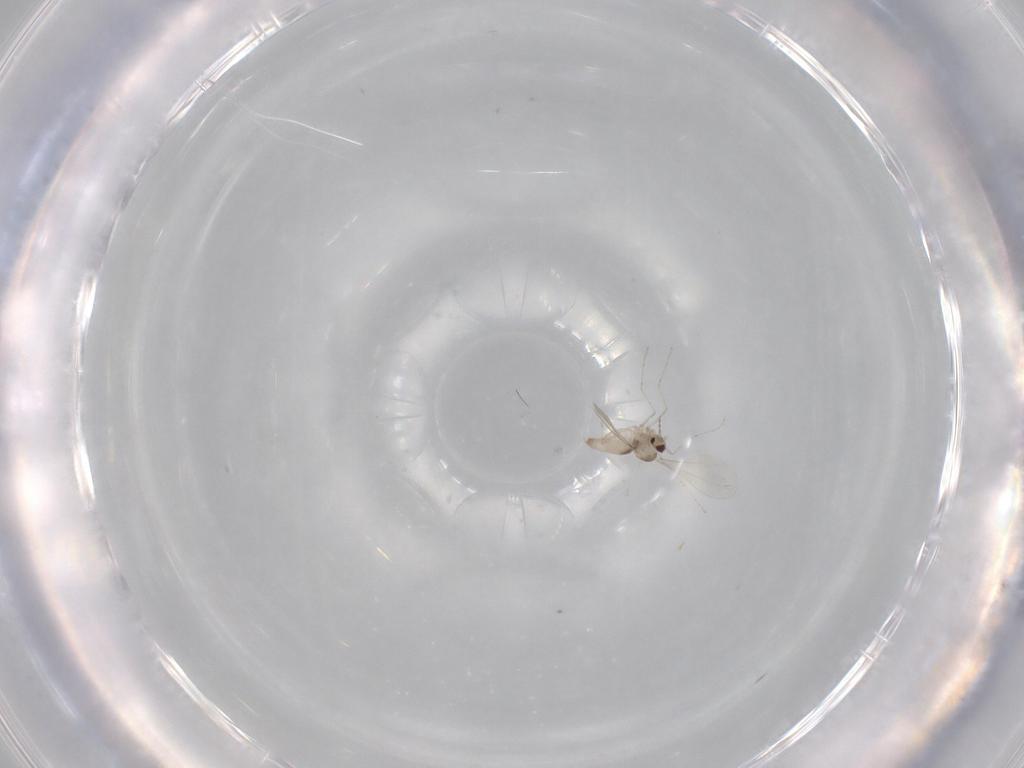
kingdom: Animalia
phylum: Arthropoda
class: Insecta
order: Diptera
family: Cecidomyiidae
